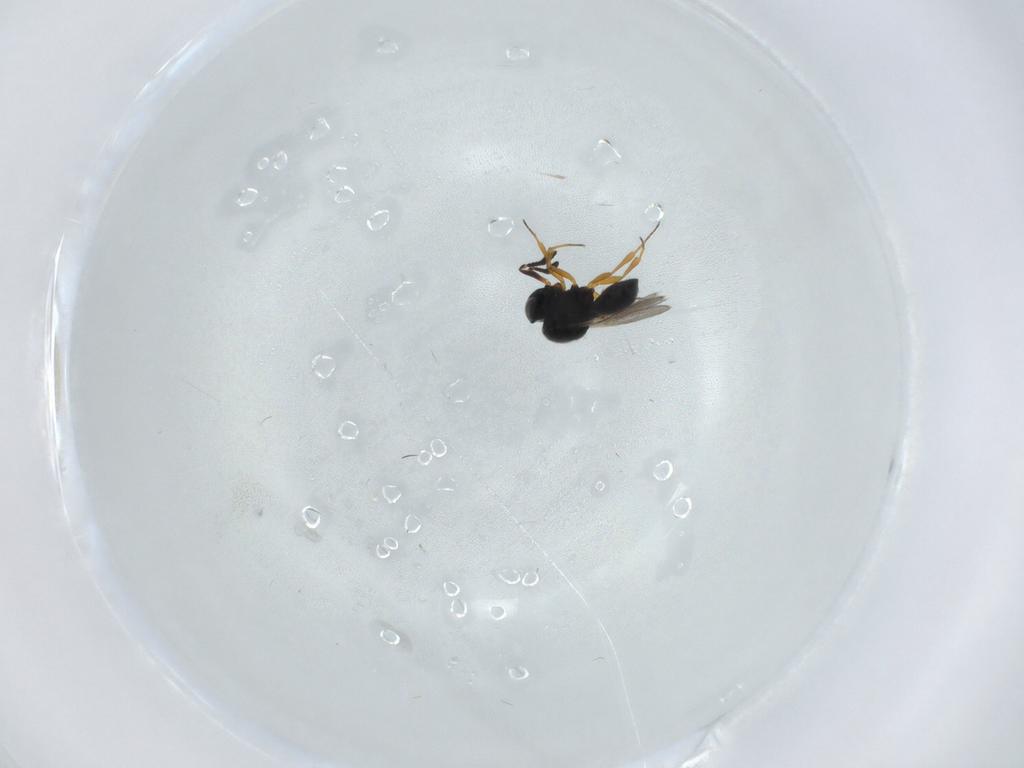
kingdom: Animalia
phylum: Arthropoda
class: Insecta
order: Hymenoptera
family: Scelionidae
